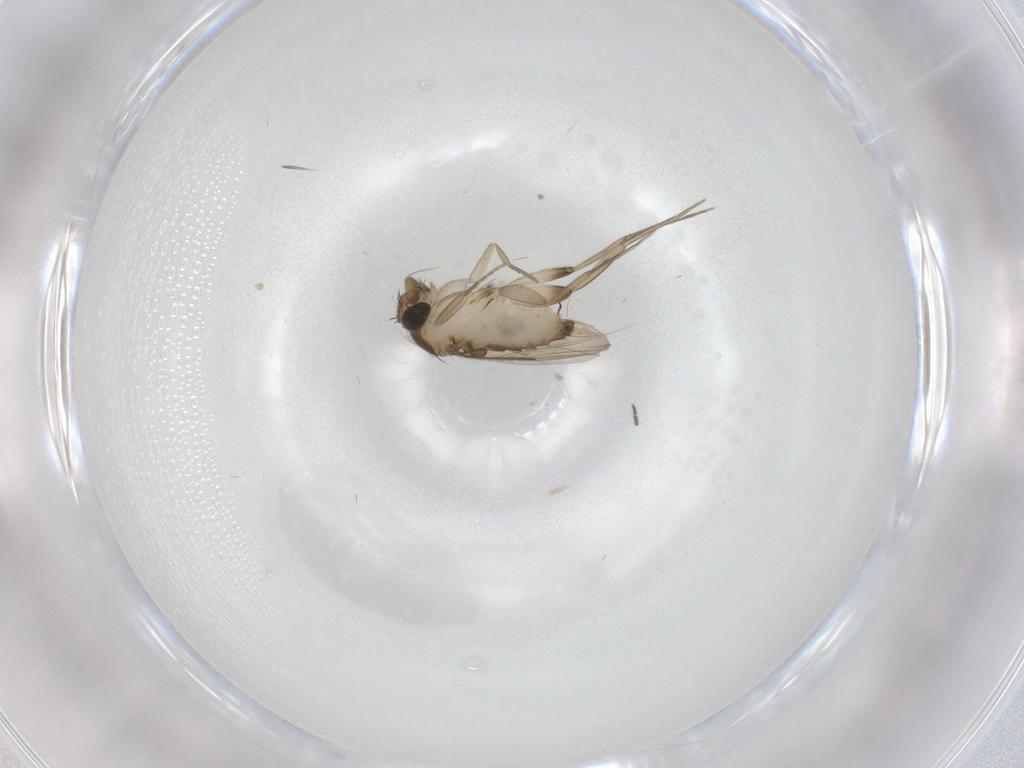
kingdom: Animalia
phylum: Arthropoda
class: Insecta
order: Diptera
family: Phoridae
